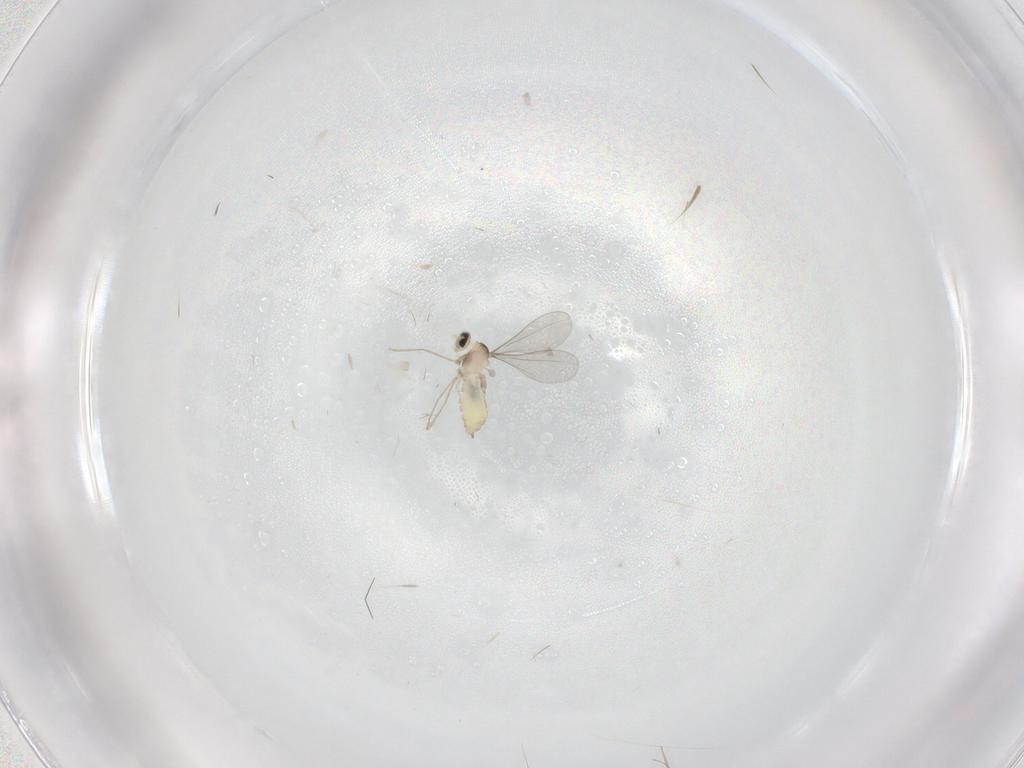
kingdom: Animalia
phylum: Arthropoda
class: Insecta
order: Diptera
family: Cecidomyiidae
